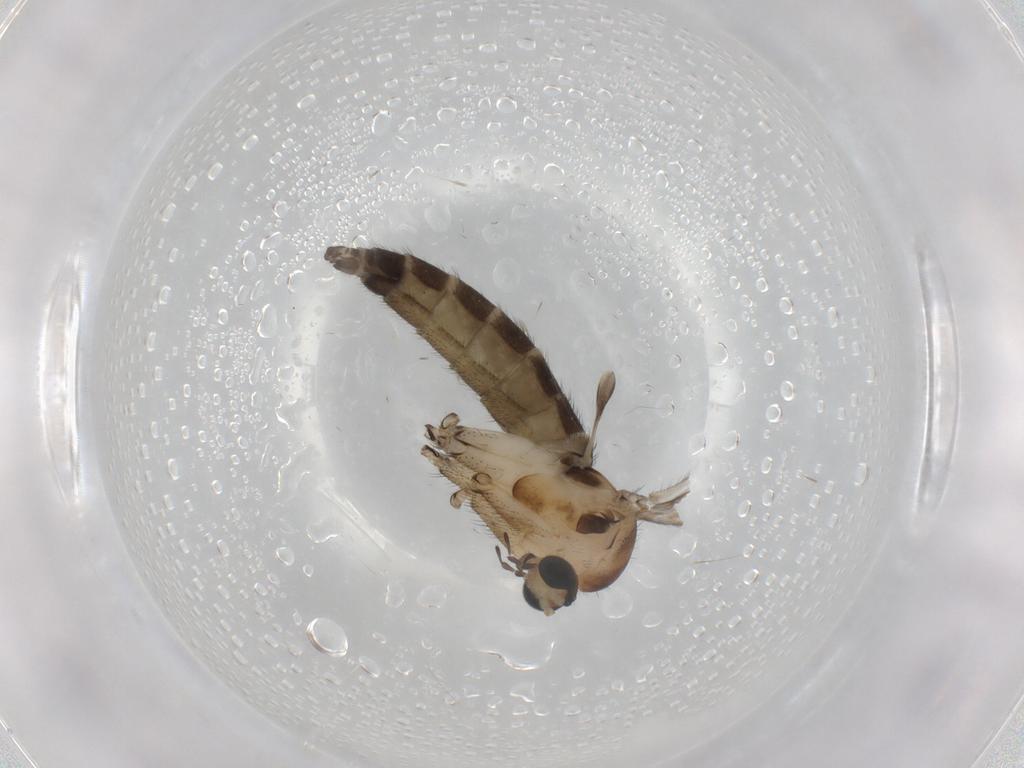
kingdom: Animalia
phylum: Arthropoda
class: Insecta
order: Diptera
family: Sciaridae
